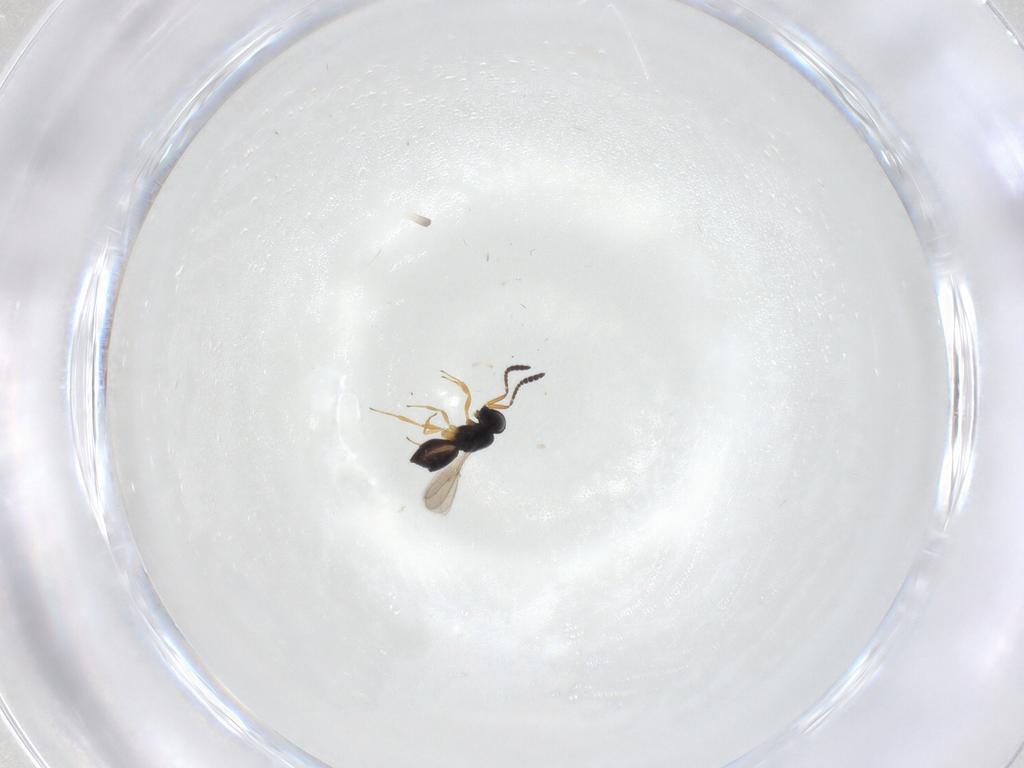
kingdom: Animalia
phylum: Arthropoda
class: Insecta
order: Hymenoptera
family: Scelionidae
